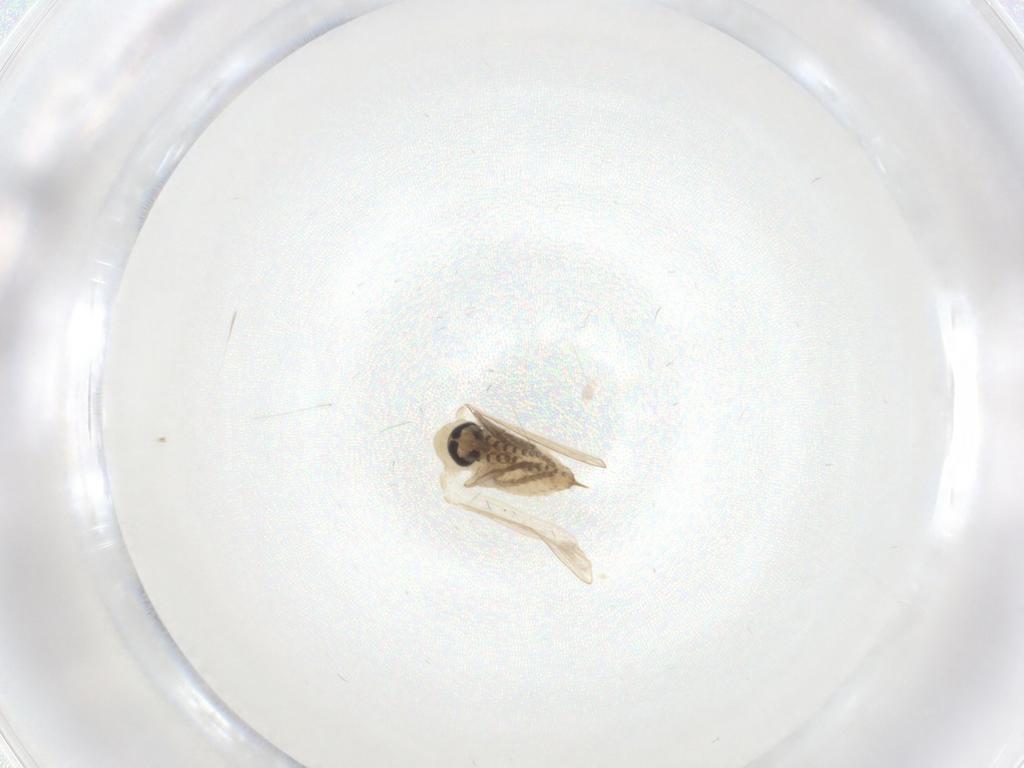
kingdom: Animalia
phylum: Arthropoda
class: Insecta
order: Diptera
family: Psychodidae
